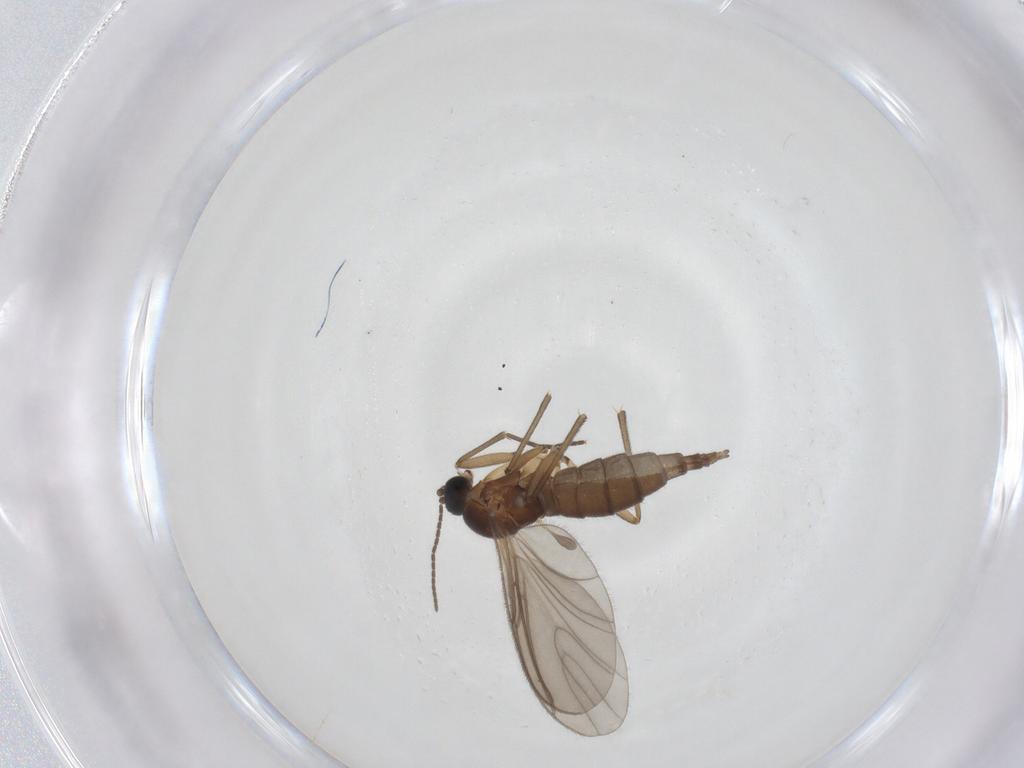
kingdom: Animalia
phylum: Arthropoda
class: Insecta
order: Diptera
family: Sciaridae
